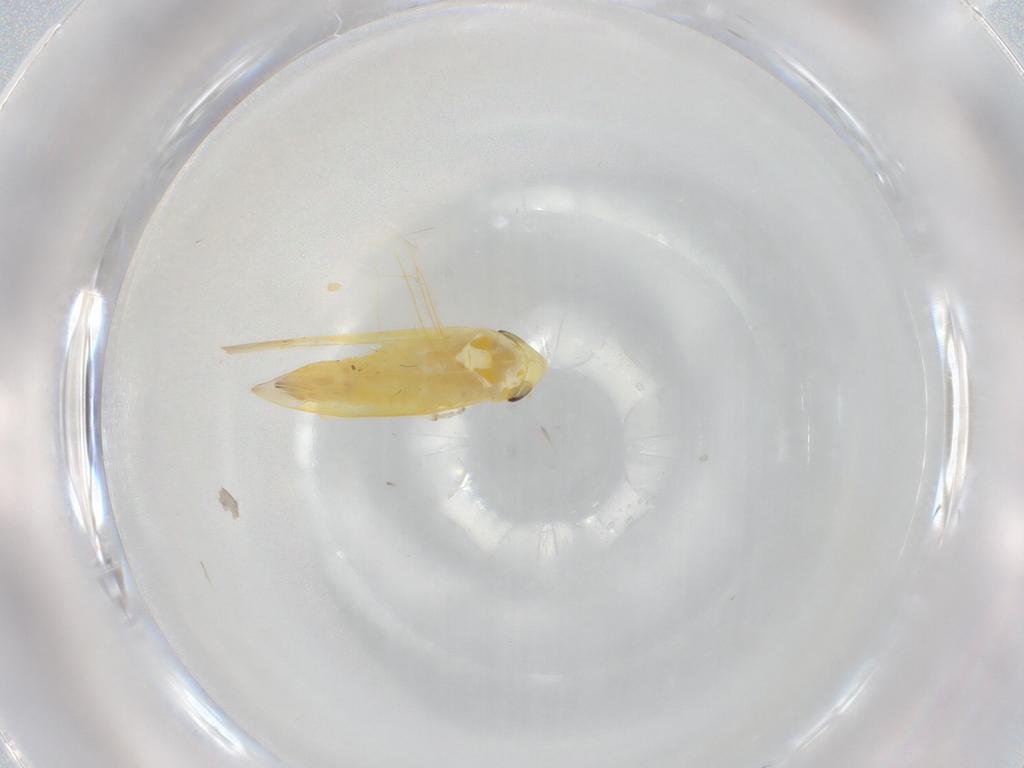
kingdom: Animalia
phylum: Arthropoda
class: Insecta
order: Hemiptera
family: Cicadellidae
